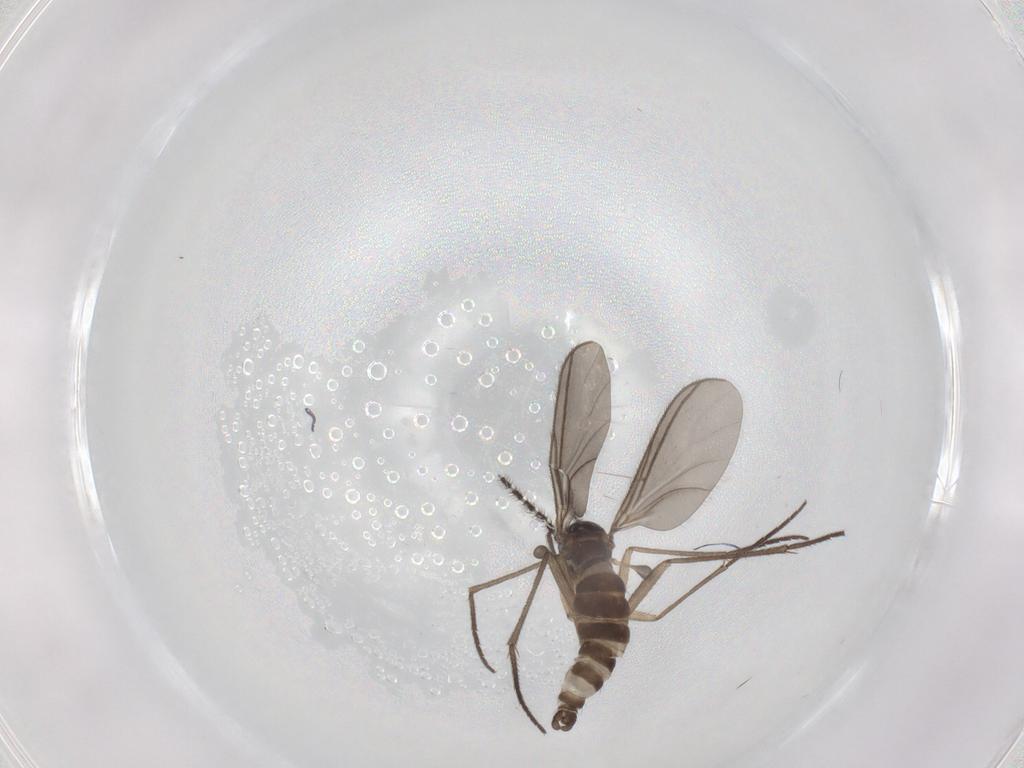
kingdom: Animalia
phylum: Arthropoda
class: Insecta
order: Diptera
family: Sciaridae
